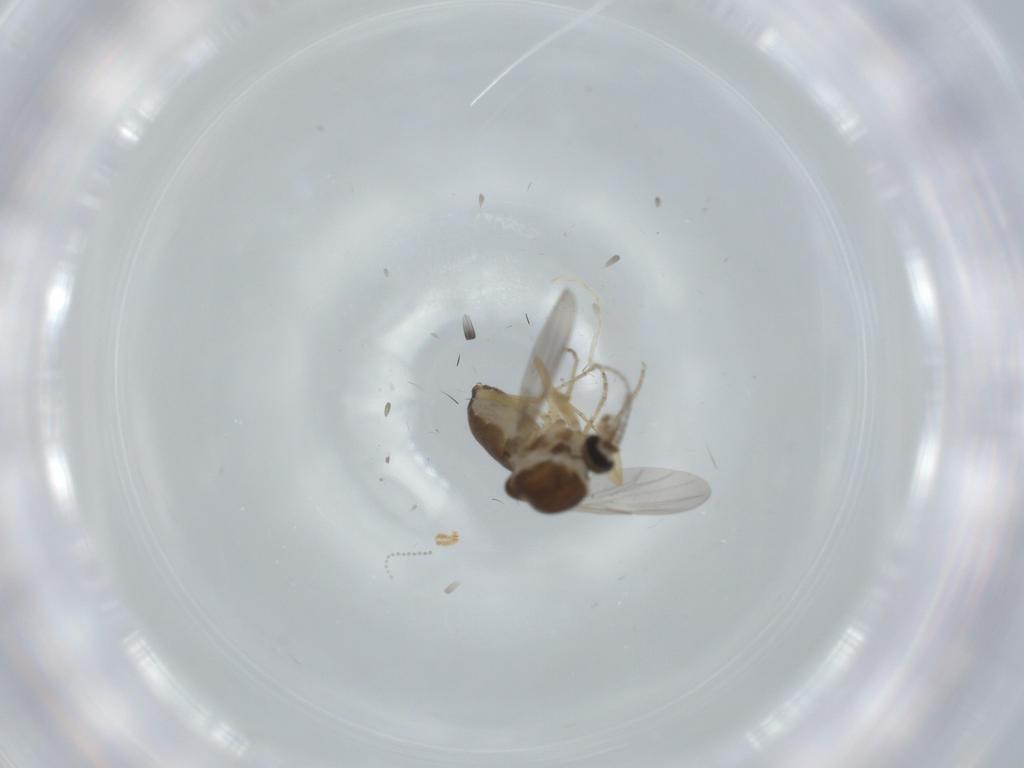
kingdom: Animalia
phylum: Arthropoda
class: Insecta
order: Diptera
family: Ceratopogonidae
